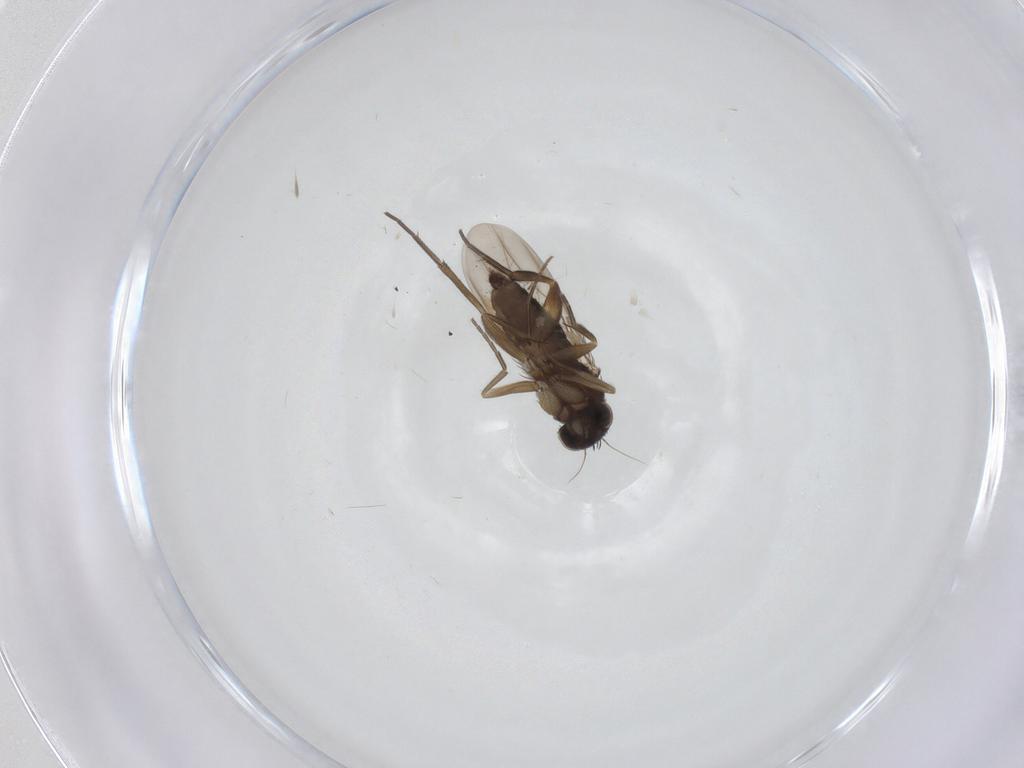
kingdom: Animalia
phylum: Arthropoda
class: Insecta
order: Diptera
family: Phoridae
